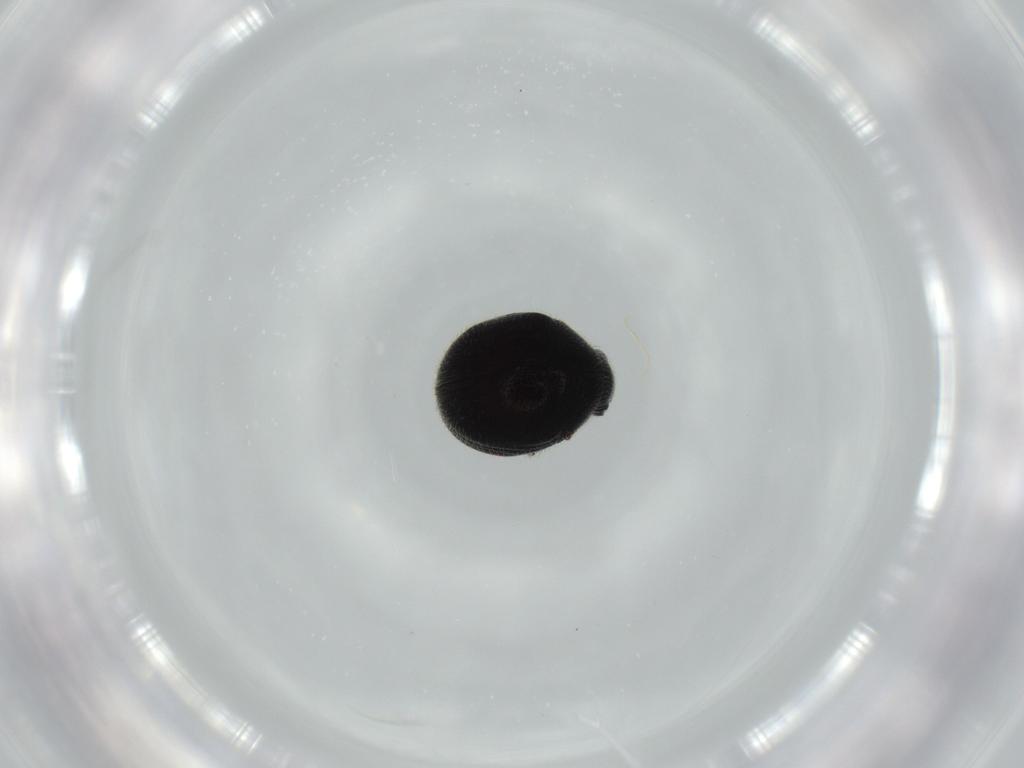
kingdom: Animalia
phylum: Arthropoda
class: Insecta
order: Coleoptera
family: Ptinidae
